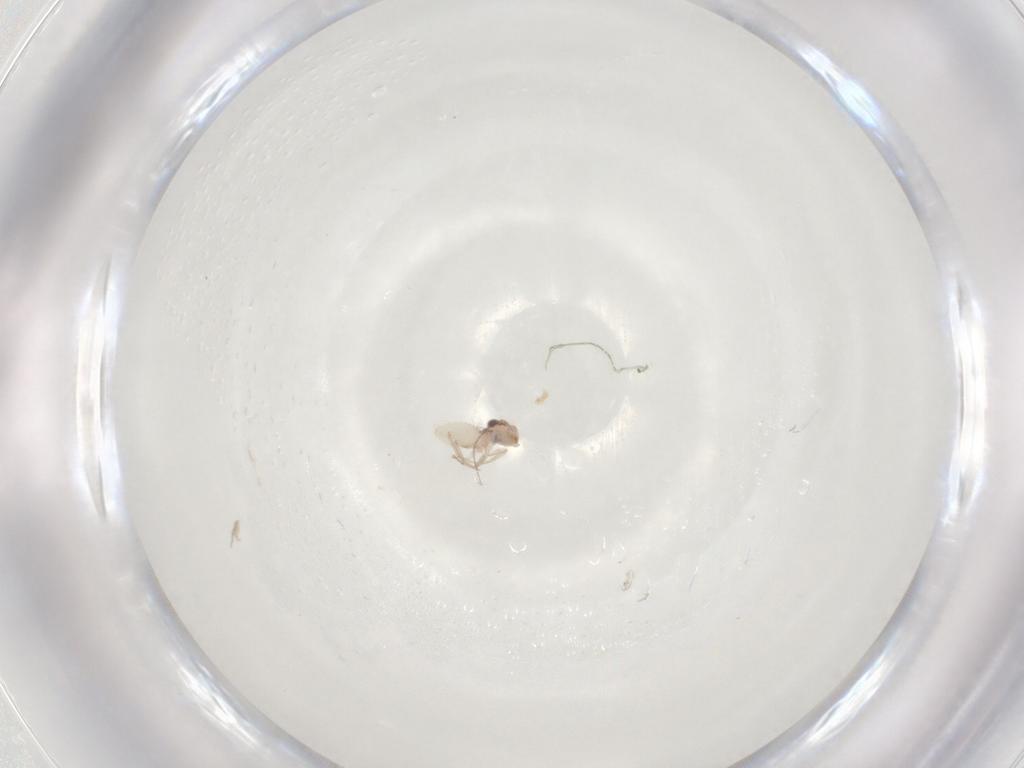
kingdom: Animalia
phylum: Arthropoda
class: Insecta
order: Psocodea
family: Lepidopsocidae
